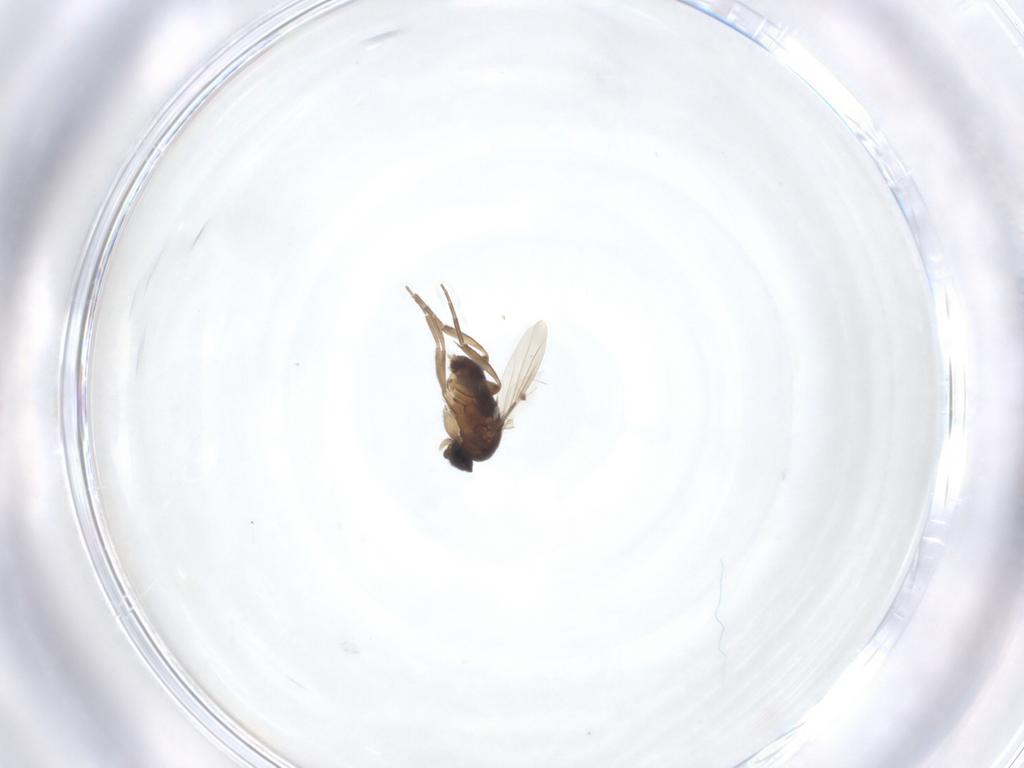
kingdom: Animalia
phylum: Arthropoda
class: Insecta
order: Diptera
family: Phoridae
